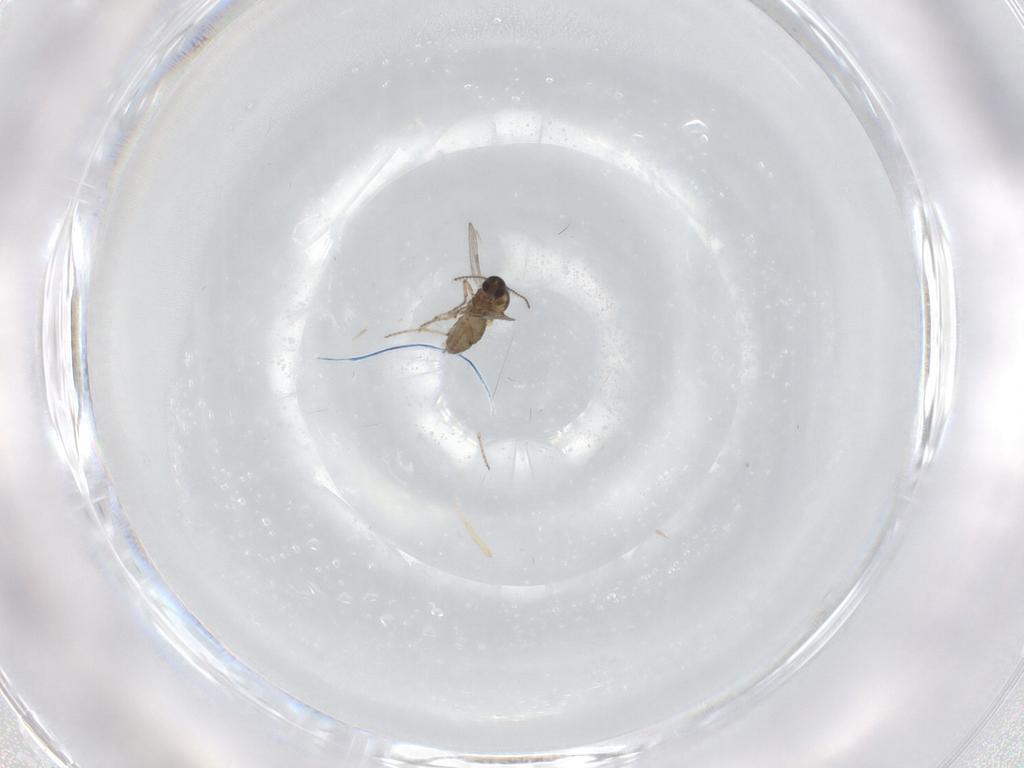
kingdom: Animalia
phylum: Arthropoda
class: Insecta
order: Diptera
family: Ceratopogonidae
